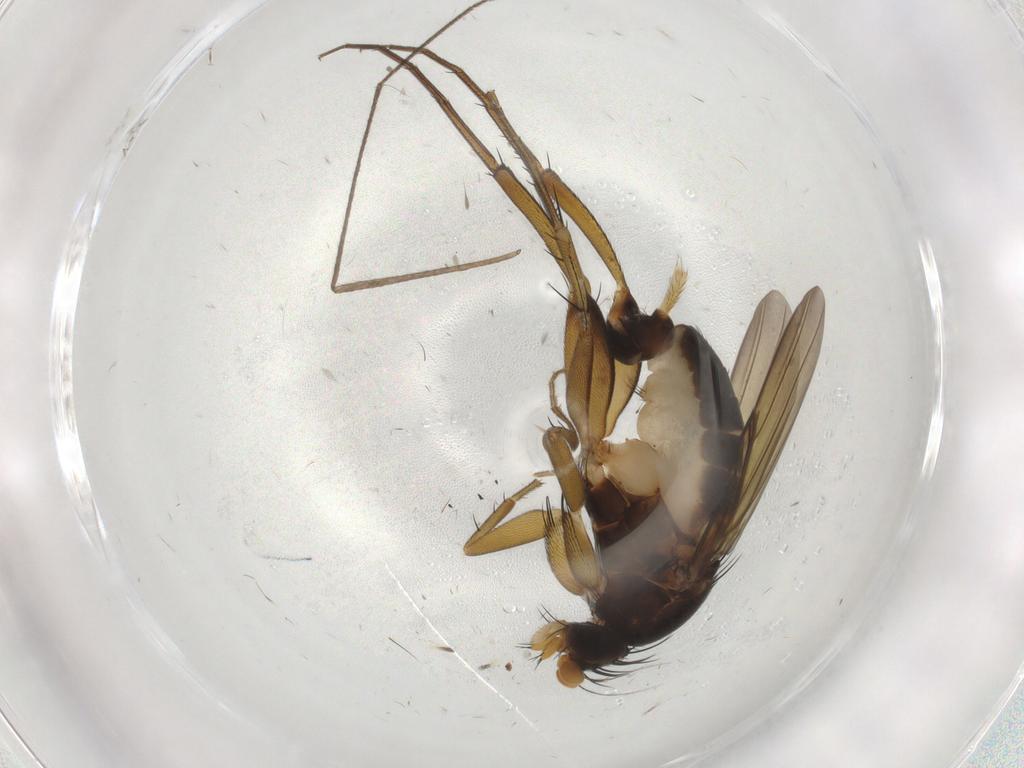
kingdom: Animalia
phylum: Arthropoda
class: Insecta
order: Diptera
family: Phoridae
